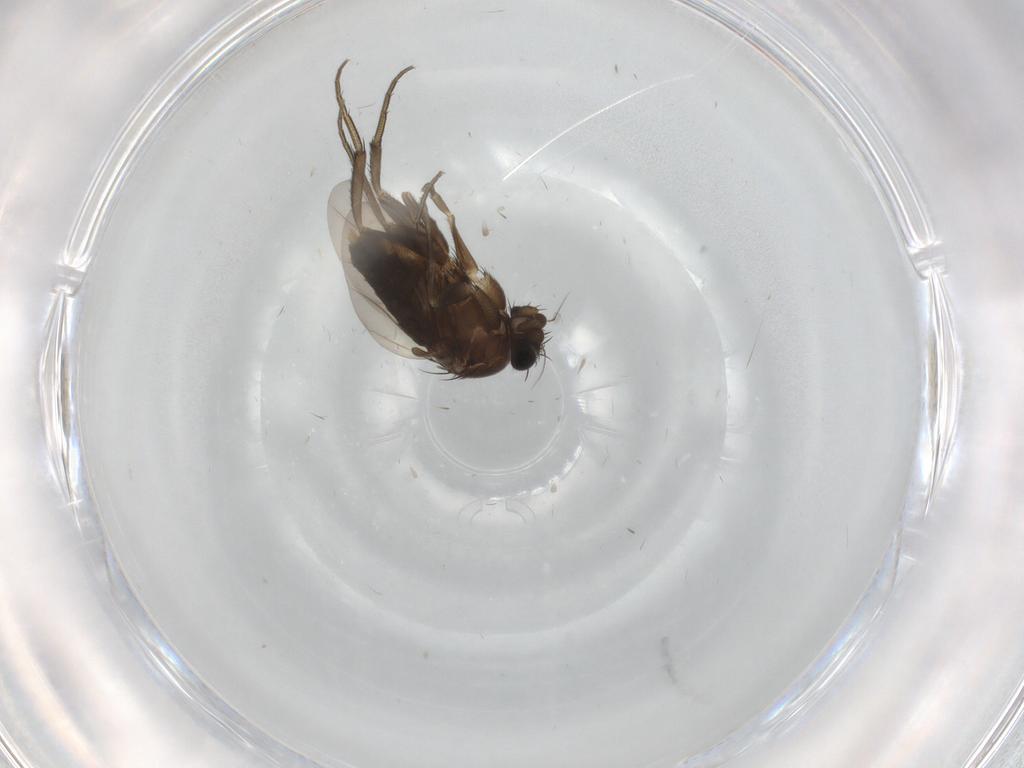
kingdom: Animalia
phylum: Arthropoda
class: Insecta
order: Diptera
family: Phoridae
